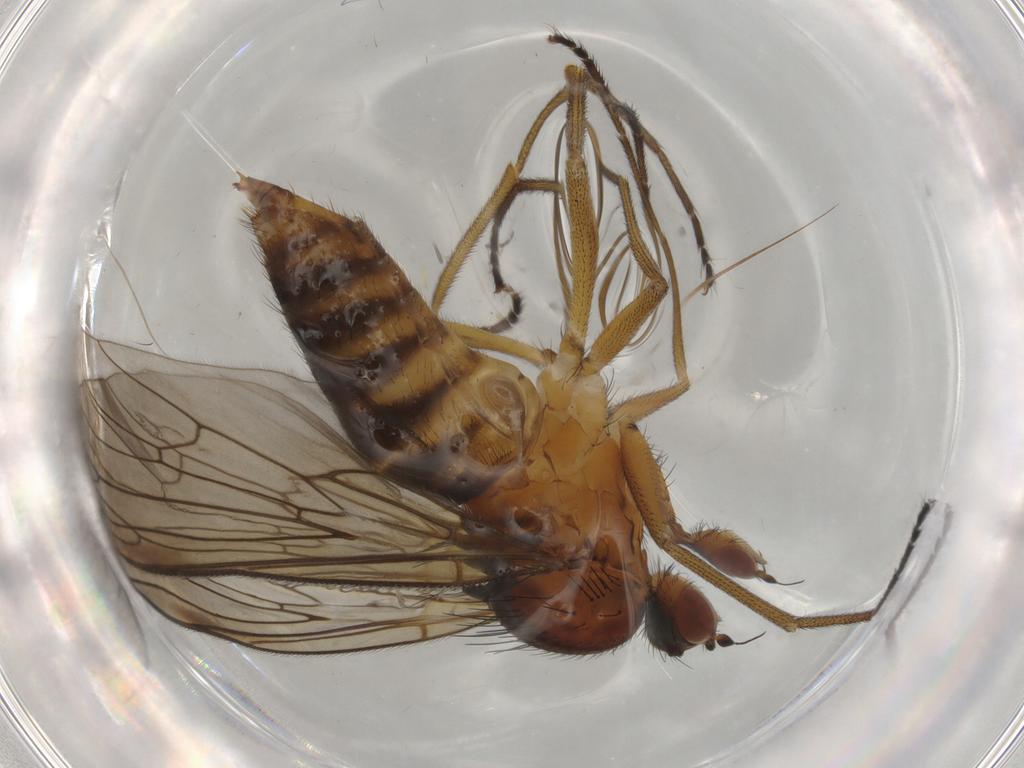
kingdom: Animalia
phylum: Arthropoda
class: Insecta
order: Diptera
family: Brachystomatidae
